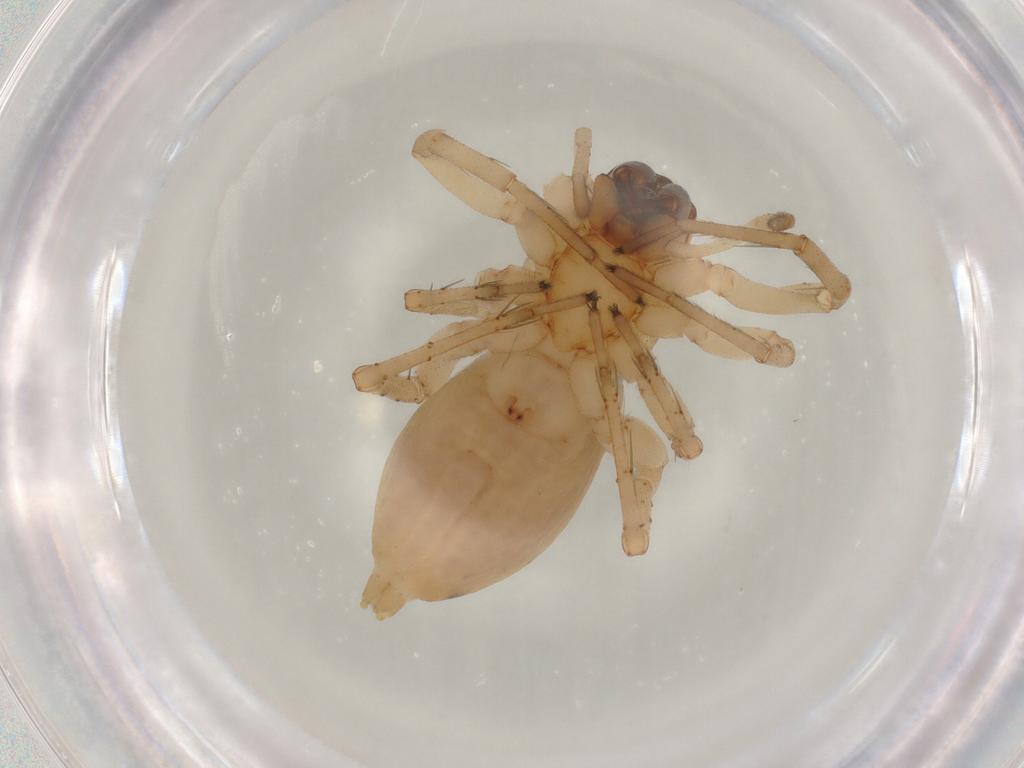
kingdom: Animalia
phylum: Arthropoda
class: Arachnida
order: Araneae
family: Anyphaenidae
